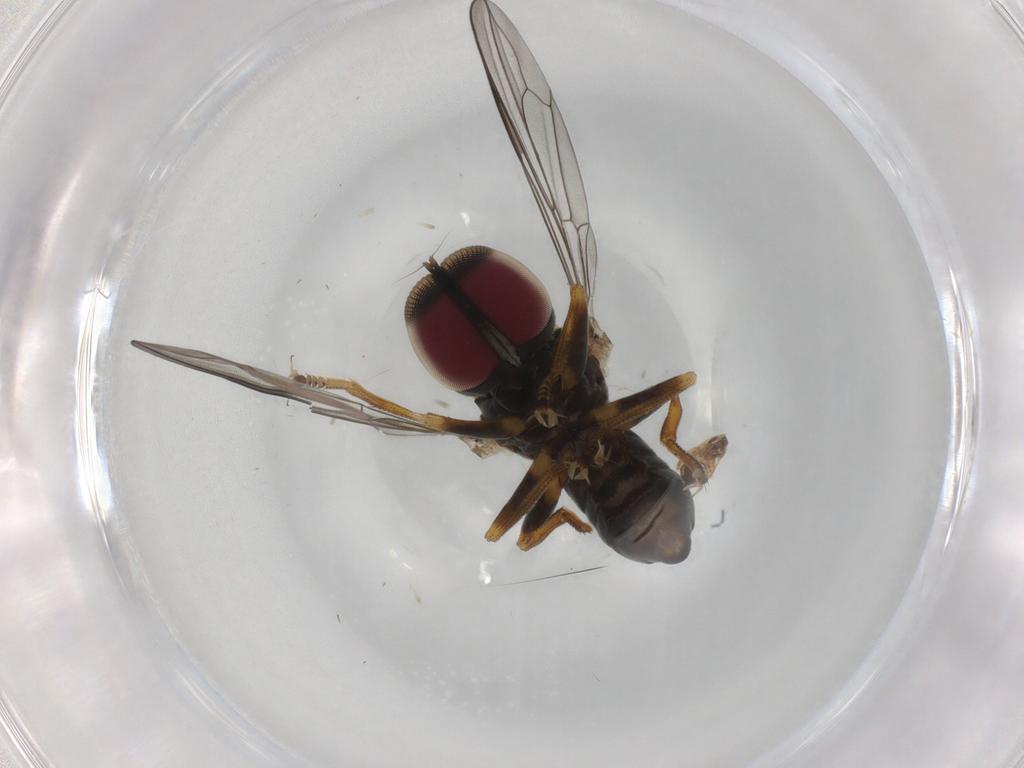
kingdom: Animalia
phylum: Arthropoda
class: Insecta
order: Diptera
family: Pipunculidae
